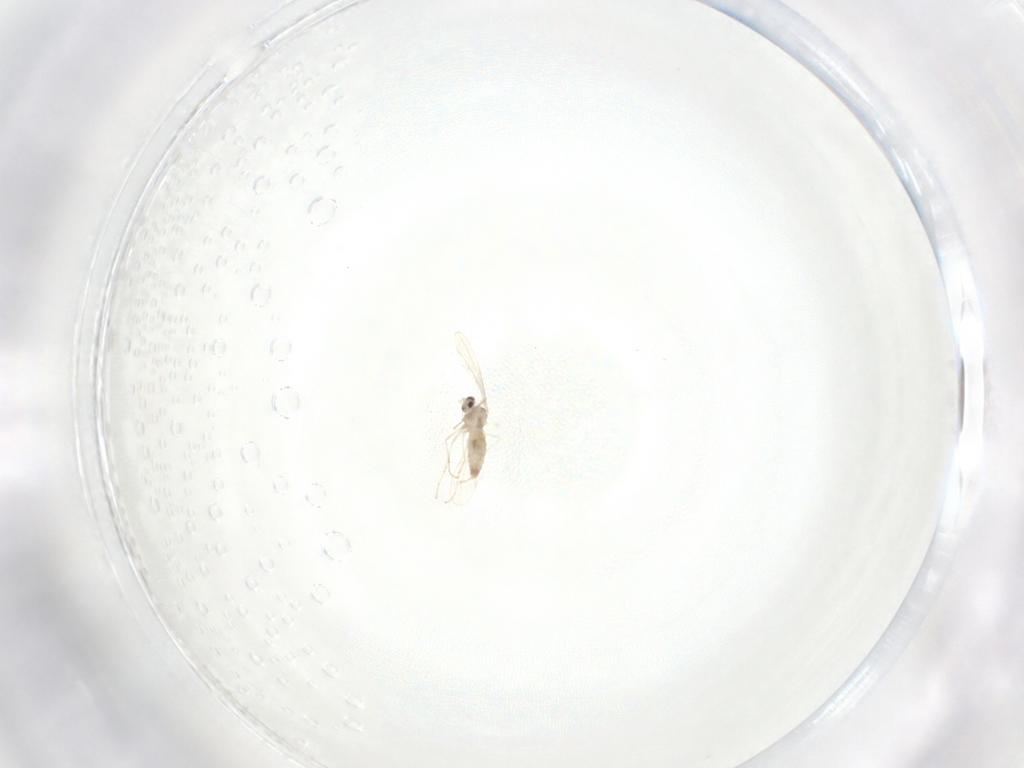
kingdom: Animalia
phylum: Arthropoda
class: Insecta
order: Diptera
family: Cecidomyiidae
